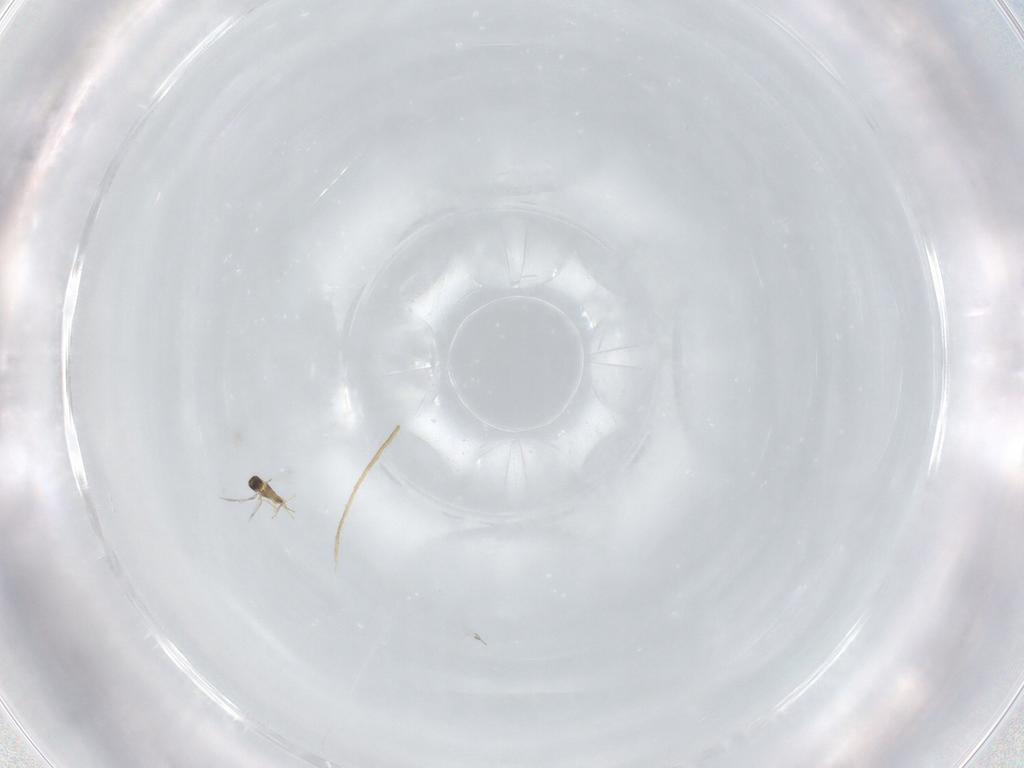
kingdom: Animalia
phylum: Arthropoda
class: Insecta
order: Hymenoptera
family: Mymaridae
